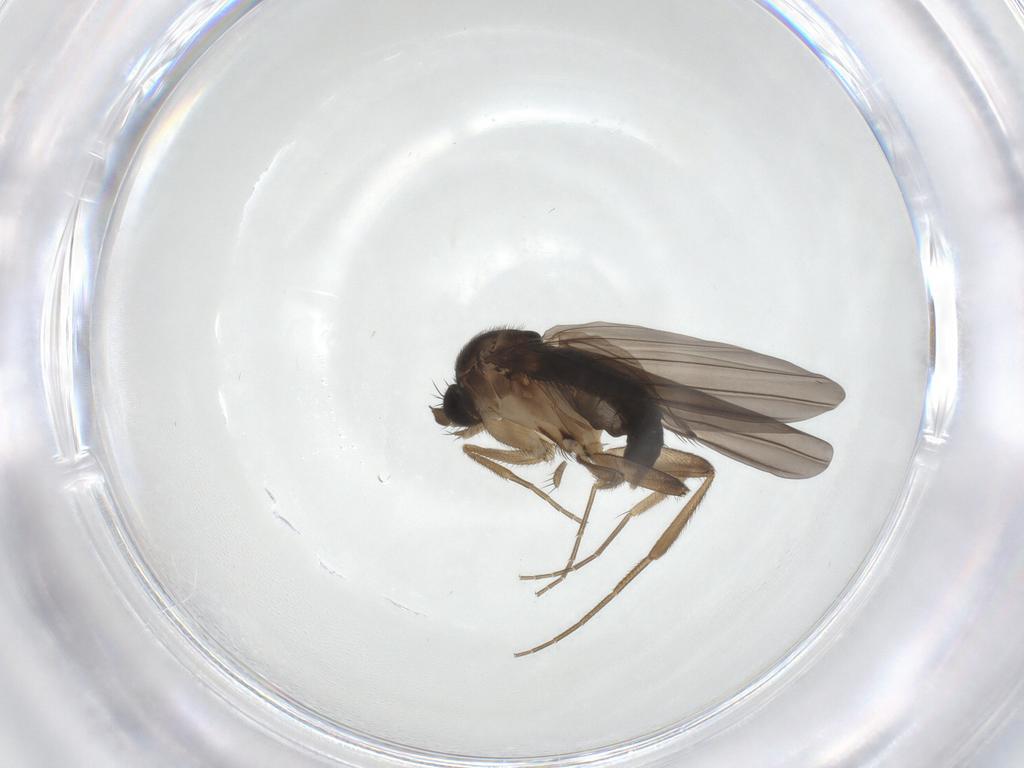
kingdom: Animalia
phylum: Arthropoda
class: Insecta
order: Diptera
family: Phoridae
